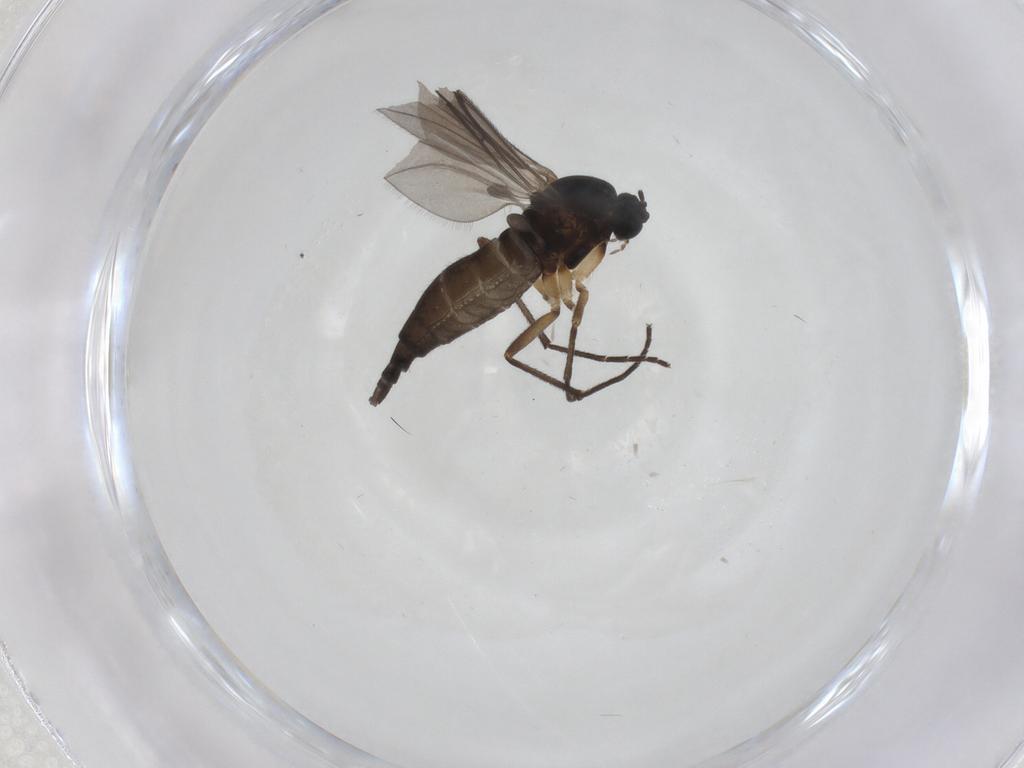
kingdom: Animalia
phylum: Arthropoda
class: Insecta
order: Diptera
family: Sciaridae
